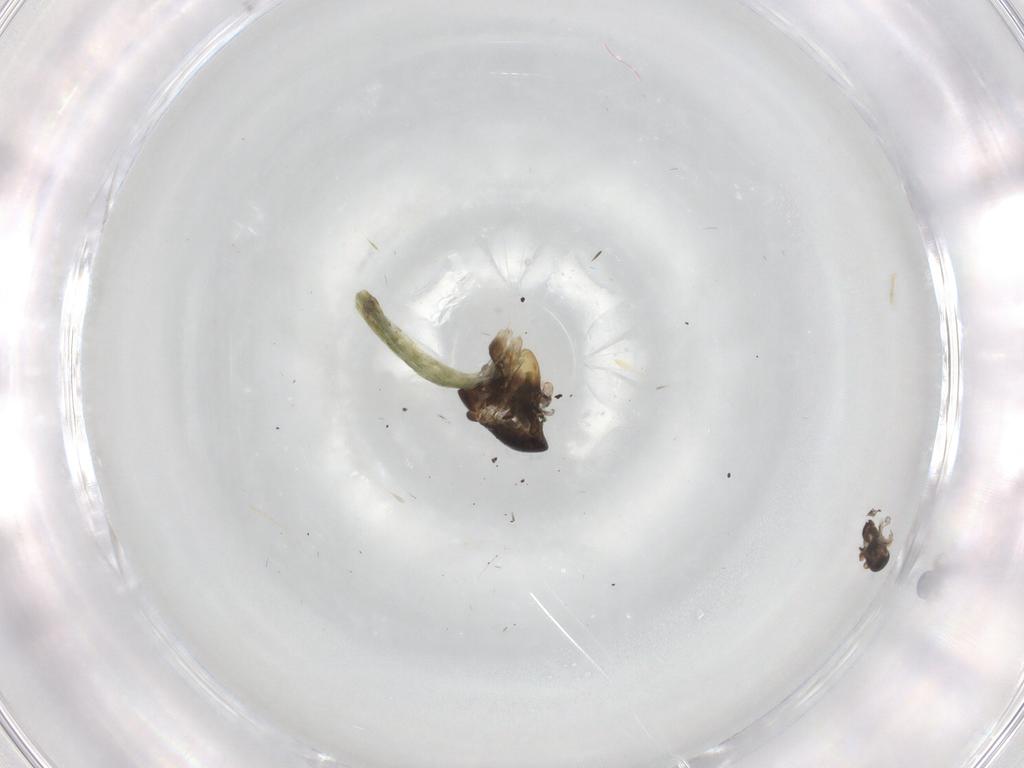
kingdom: Animalia
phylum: Arthropoda
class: Insecta
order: Diptera
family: Chironomidae
